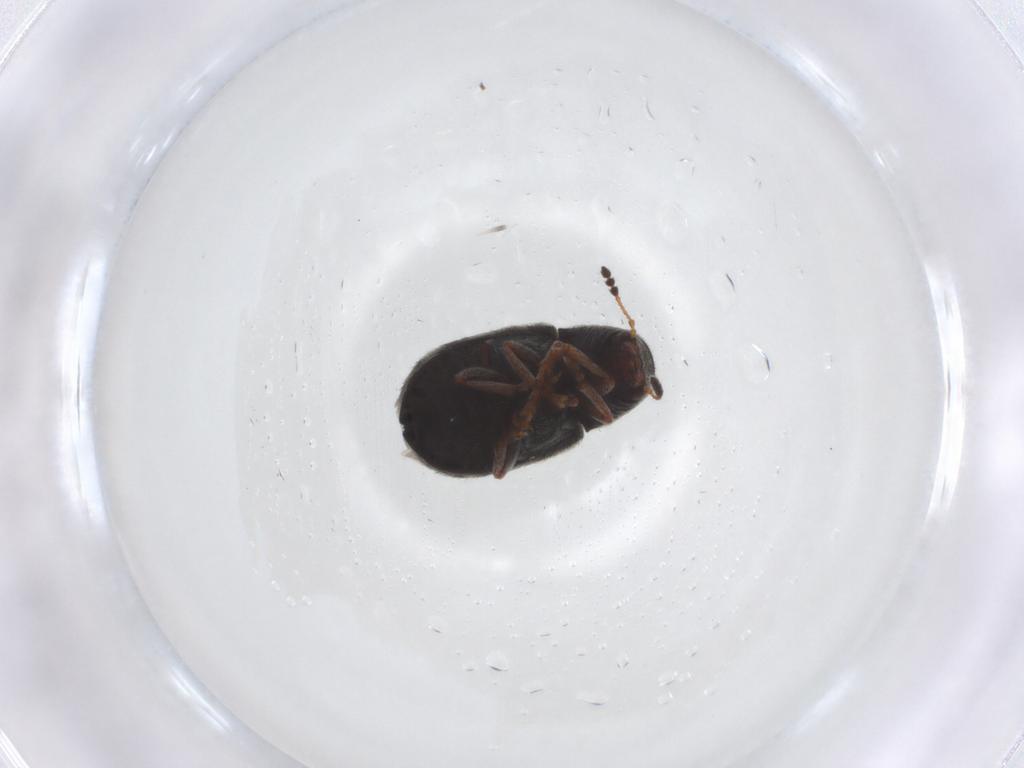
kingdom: Animalia
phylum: Arthropoda
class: Insecta
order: Coleoptera
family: Anthribidae
